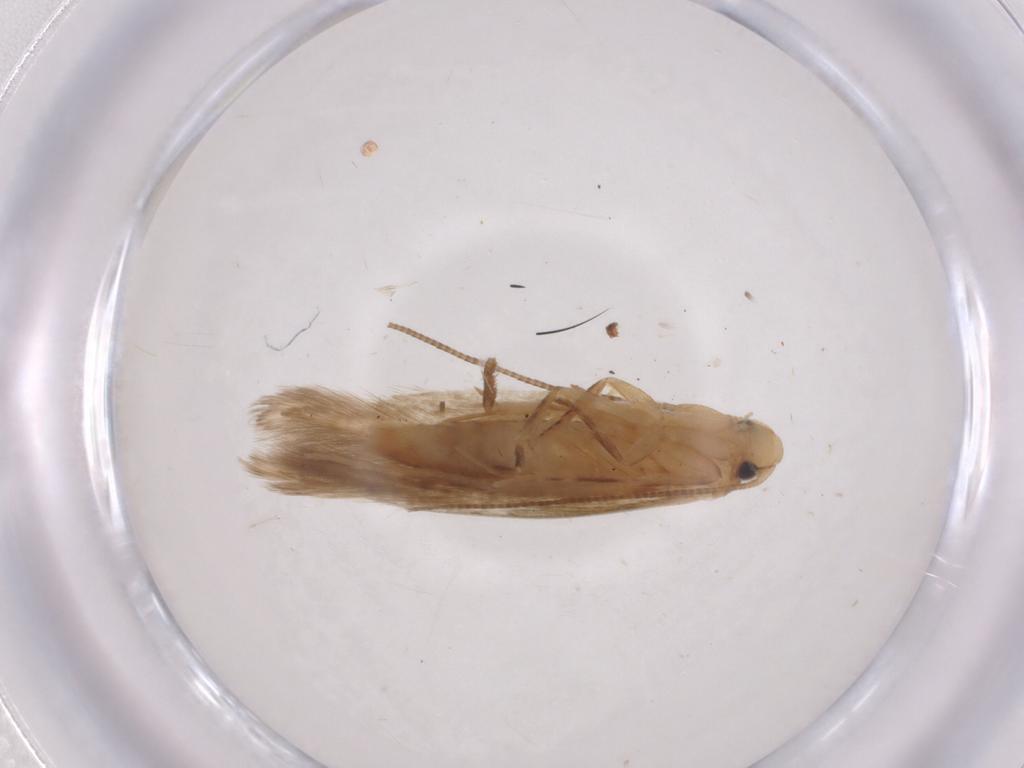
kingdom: Animalia
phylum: Arthropoda
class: Insecta
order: Lepidoptera
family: Tineidae
